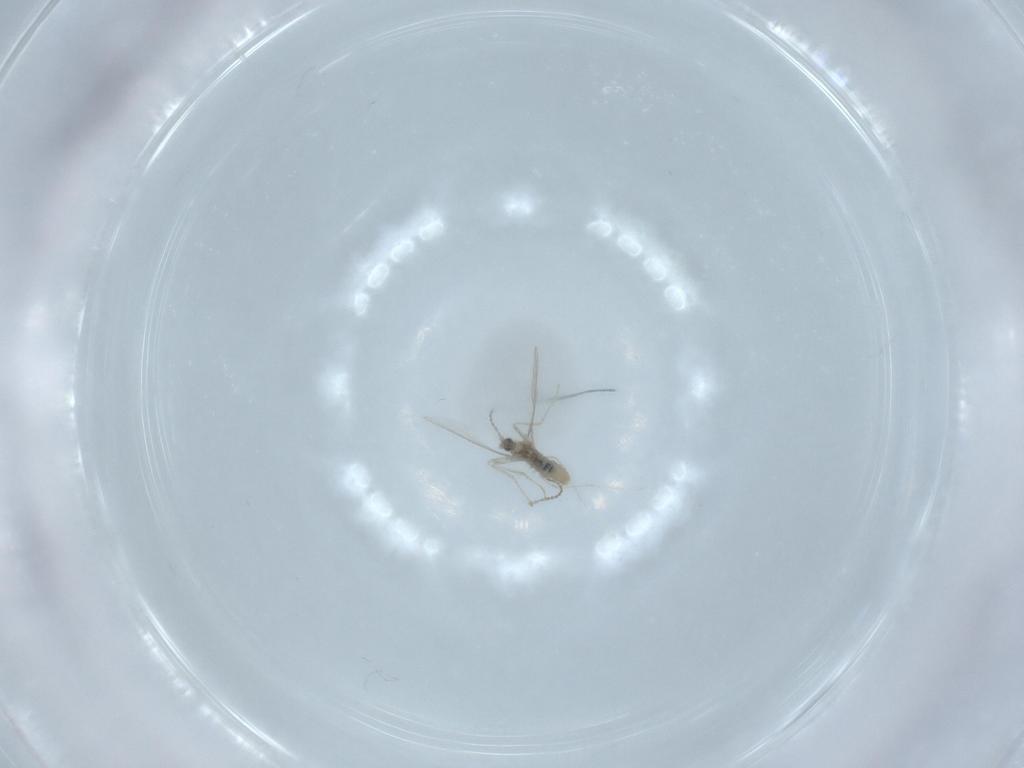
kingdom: Animalia
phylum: Arthropoda
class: Insecta
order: Diptera
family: Cecidomyiidae
